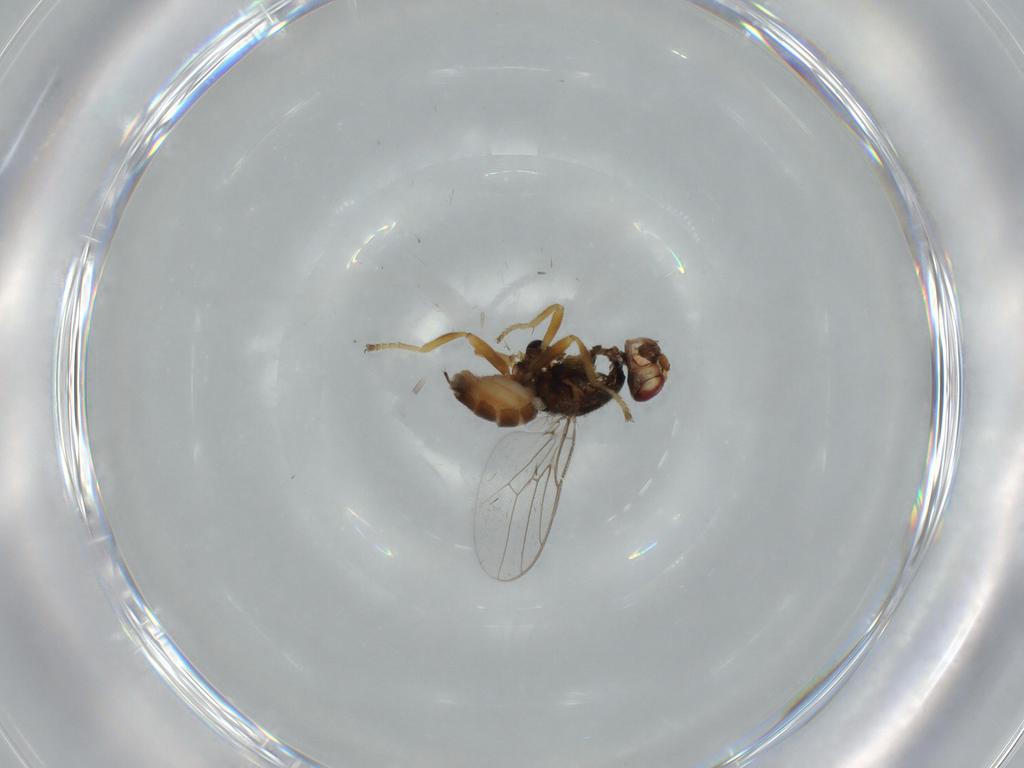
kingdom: Animalia
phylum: Arthropoda
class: Insecta
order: Diptera
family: Chloropidae
